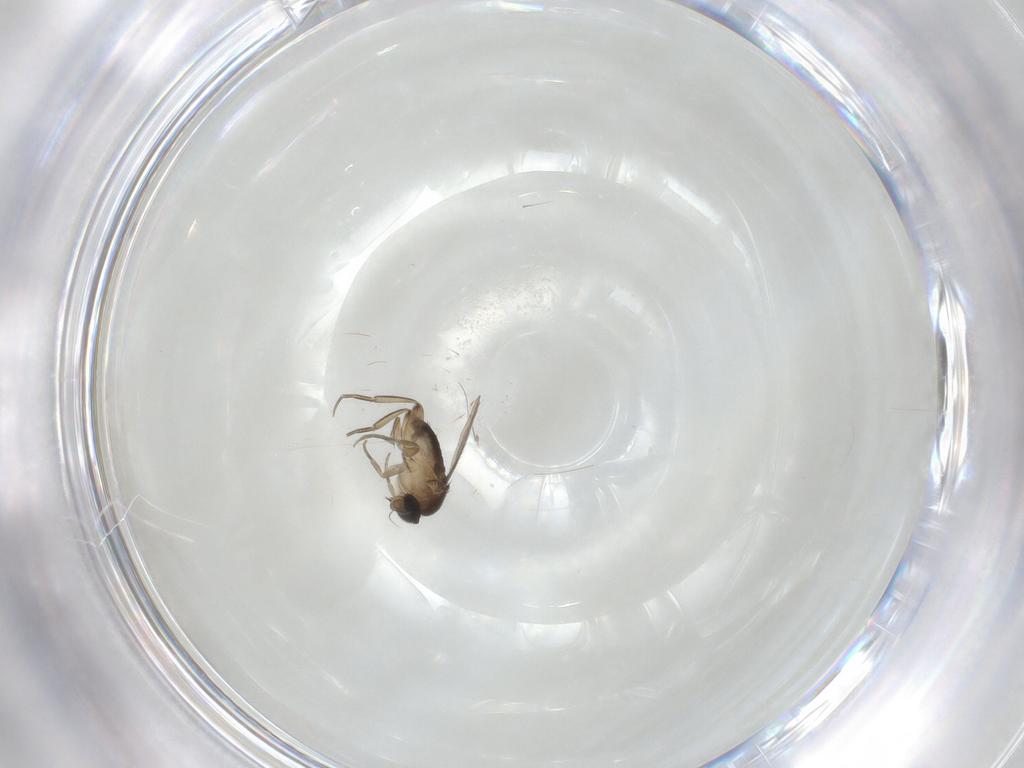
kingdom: Animalia
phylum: Arthropoda
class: Insecta
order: Diptera
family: Phoridae
